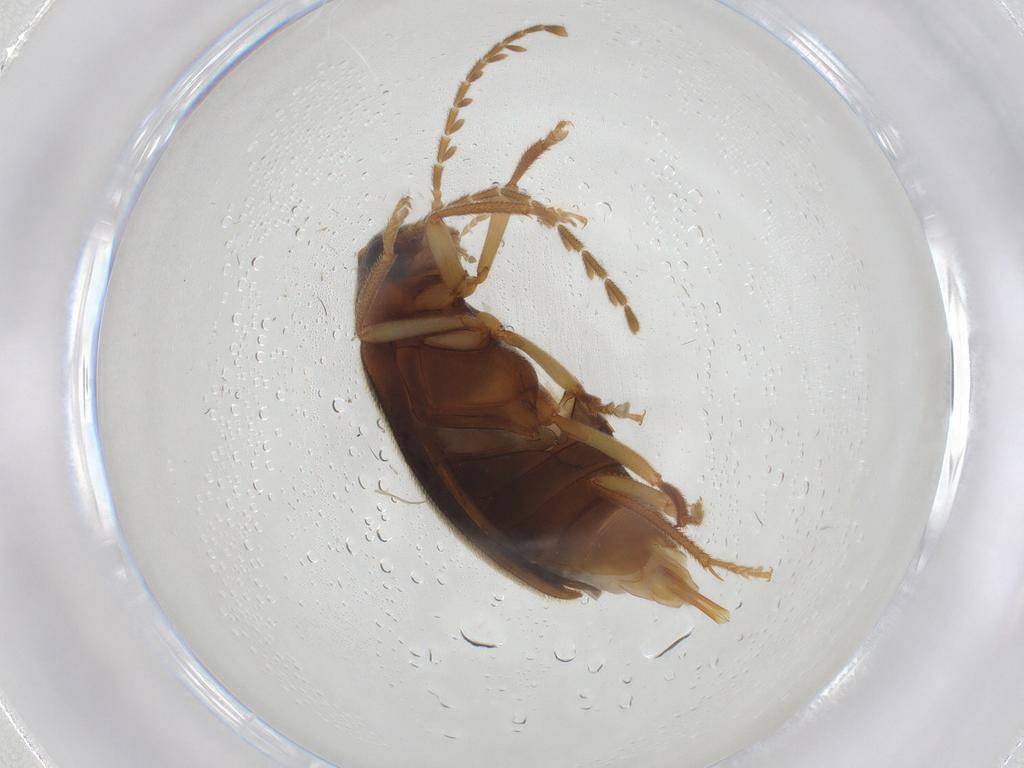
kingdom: Animalia
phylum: Arthropoda
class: Insecta
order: Coleoptera
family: Ptilodactylidae
